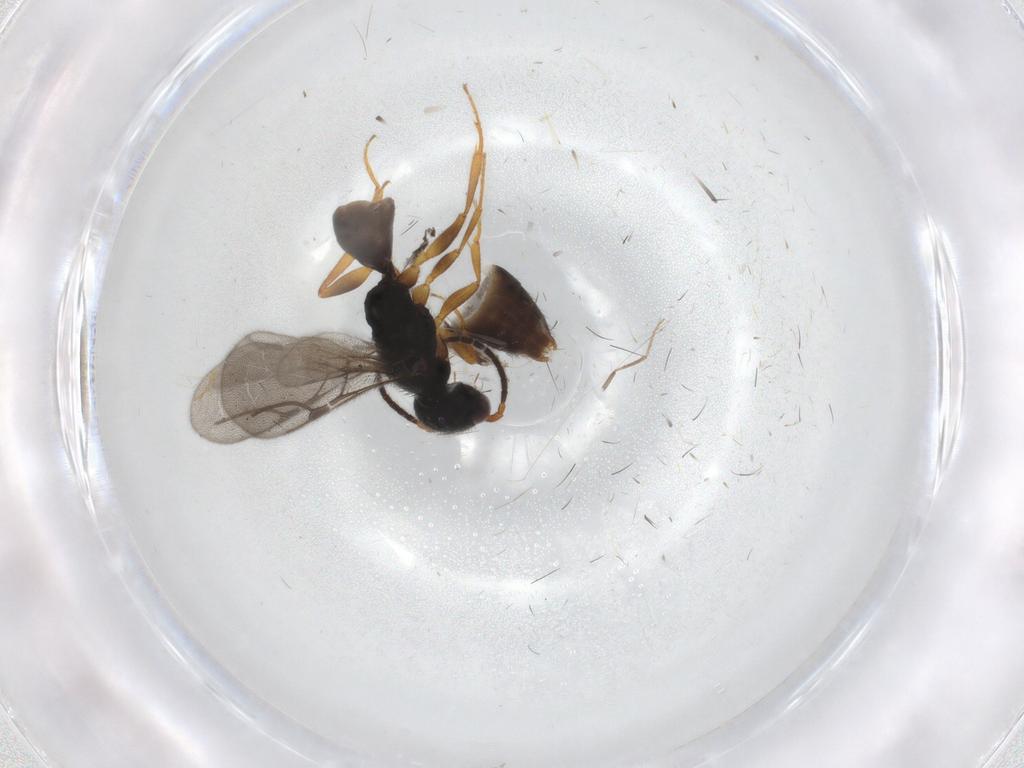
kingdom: Animalia
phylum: Arthropoda
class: Insecta
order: Hymenoptera
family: Bethylidae
